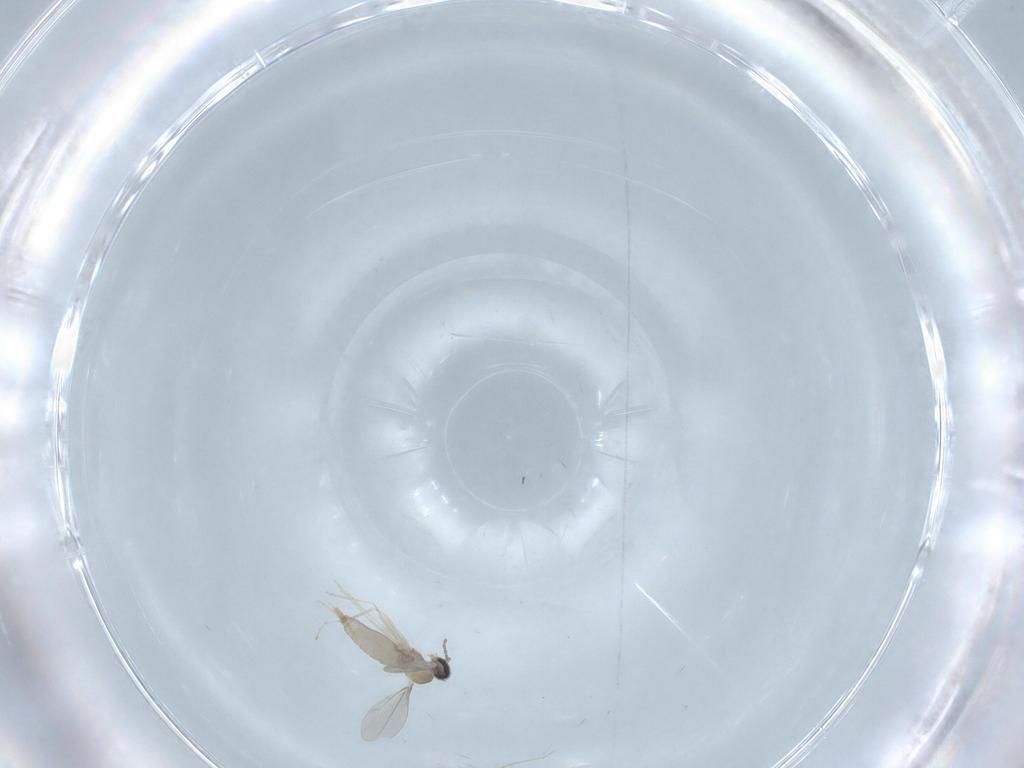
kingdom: Animalia
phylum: Arthropoda
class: Insecta
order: Diptera
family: Cecidomyiidae
